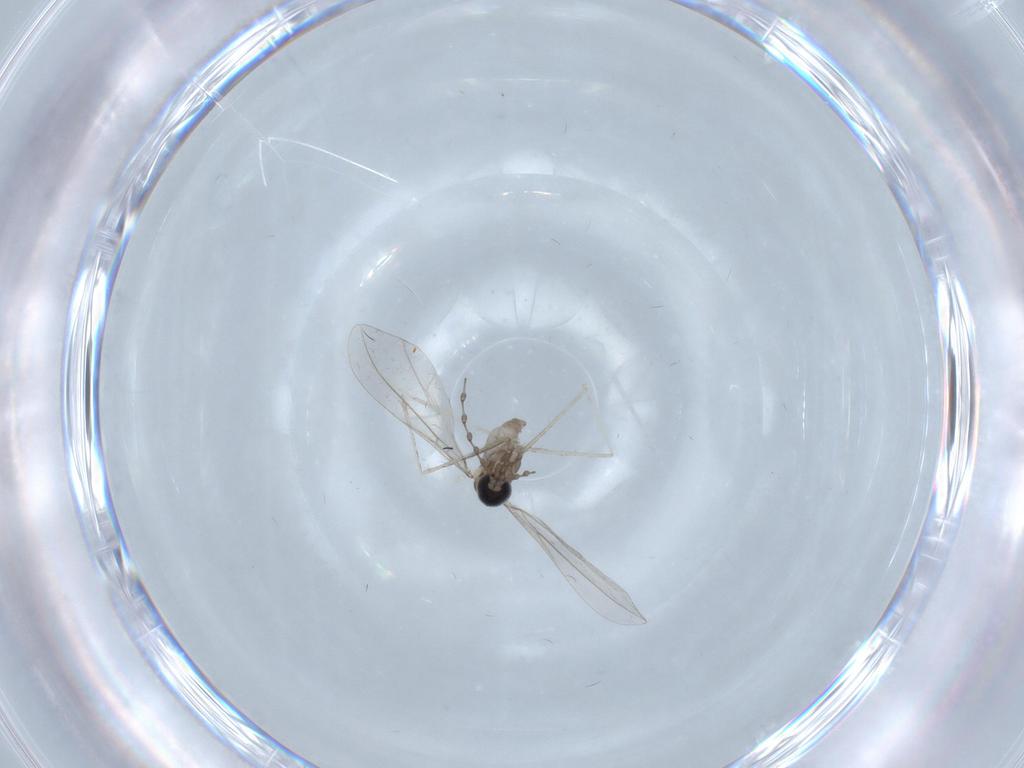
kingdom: Animalia
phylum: Arthropoda
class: Insecta
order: Diptera
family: Cecidomyiidae
